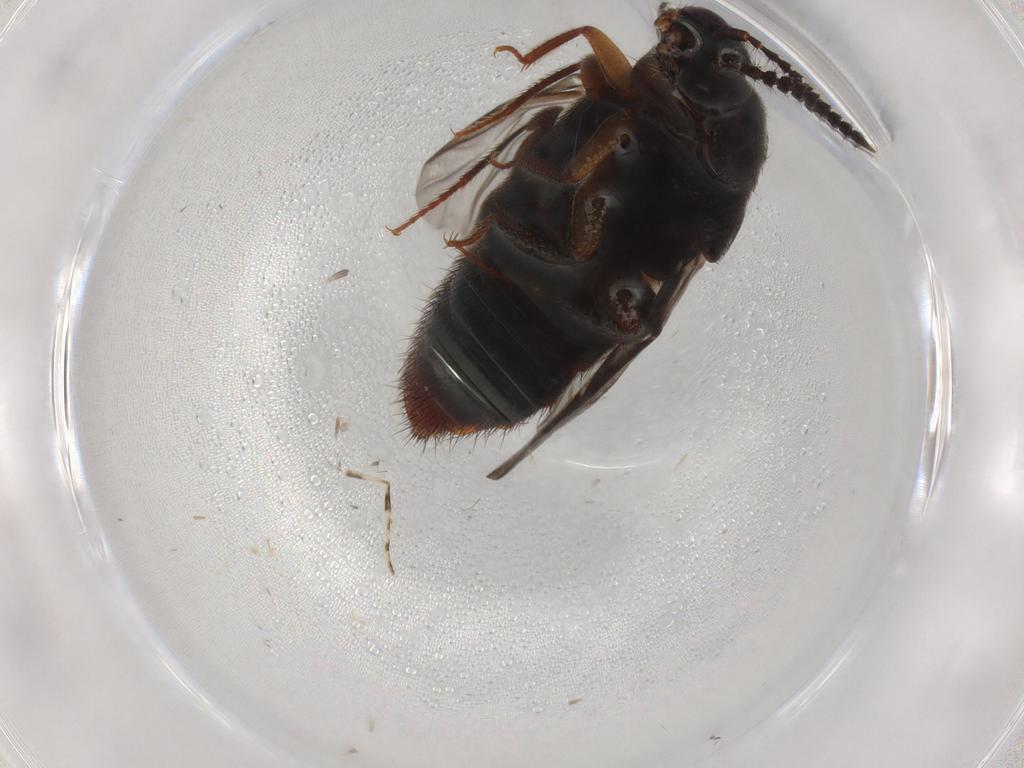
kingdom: Animalia
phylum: Arthropoda
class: Insecta
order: Coleoptera
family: Staphylinidae
